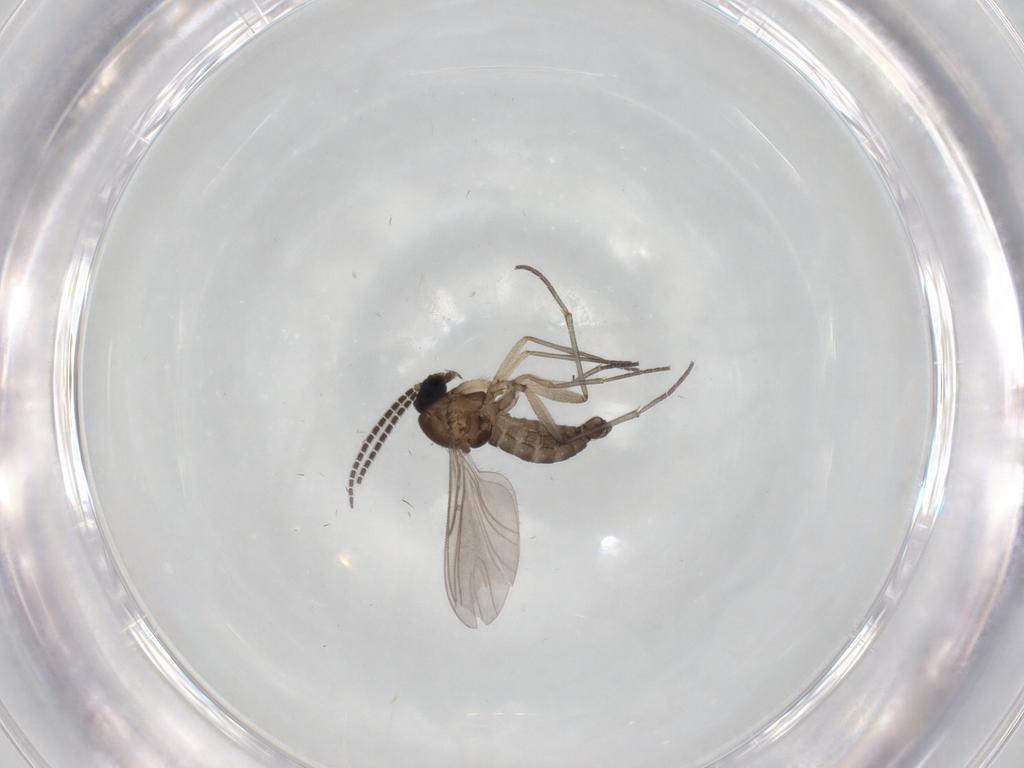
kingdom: Animalia
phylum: Arthropoda
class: Insecta
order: Diptera
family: Sciaridae
